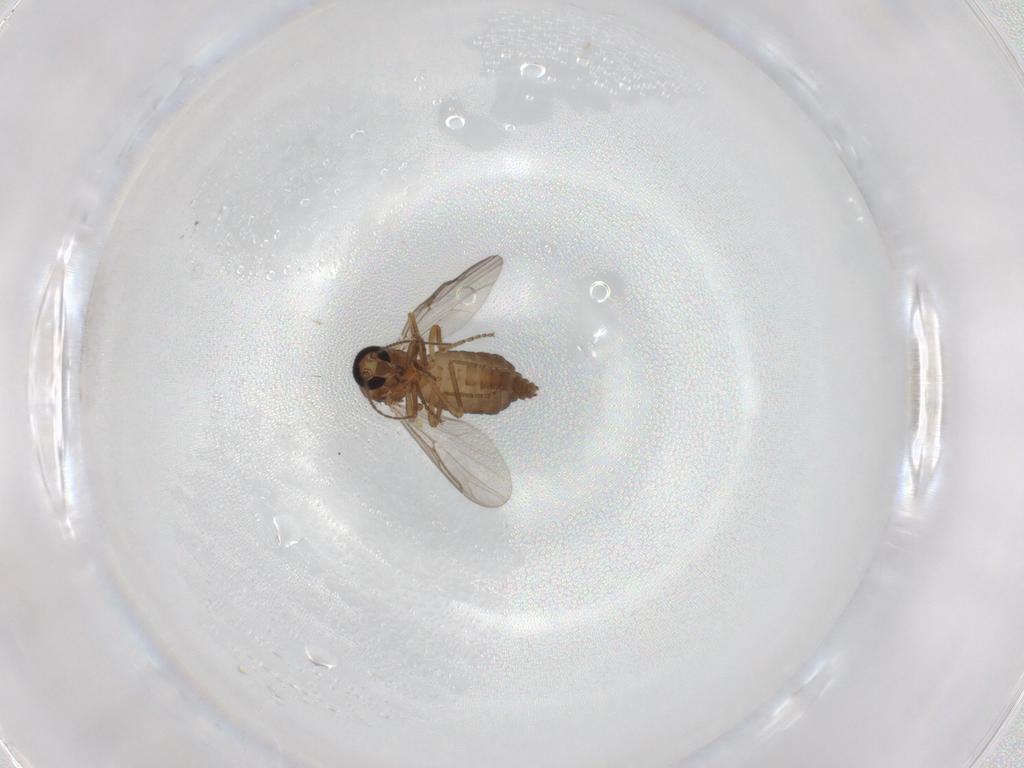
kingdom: Animalia
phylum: Arthropoda
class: Insecta
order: Diptera
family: Ceratopogonidae
